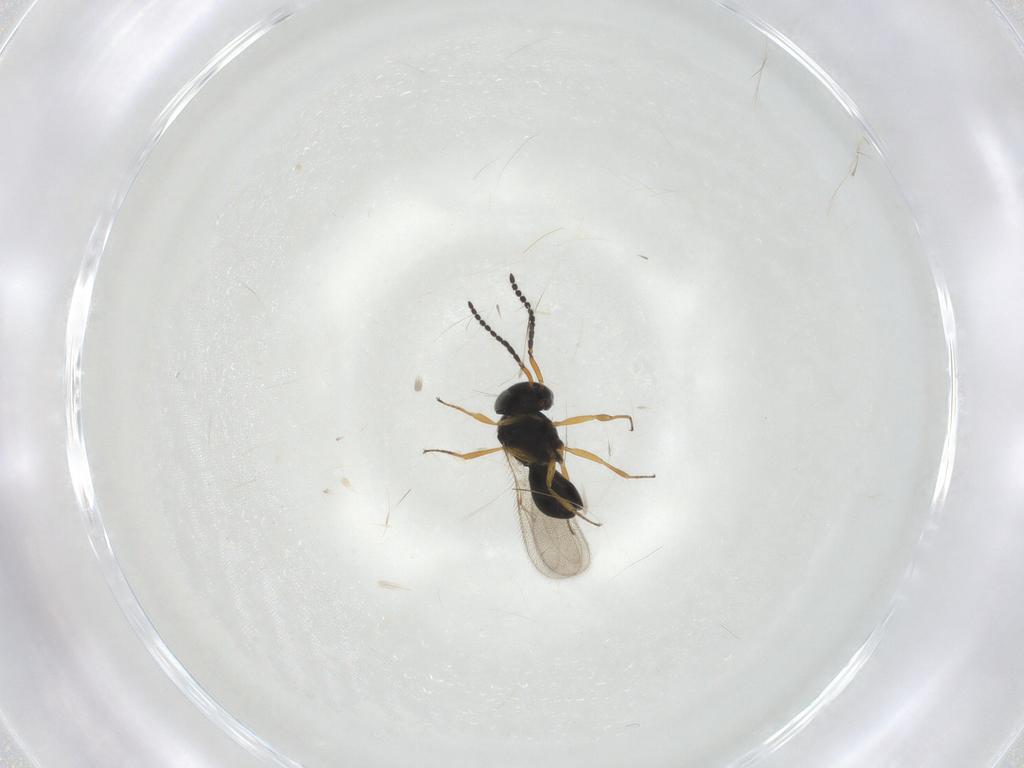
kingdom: Animalia
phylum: Arthropoda
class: Insecta
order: Hymenoptera
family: Scelionidae
